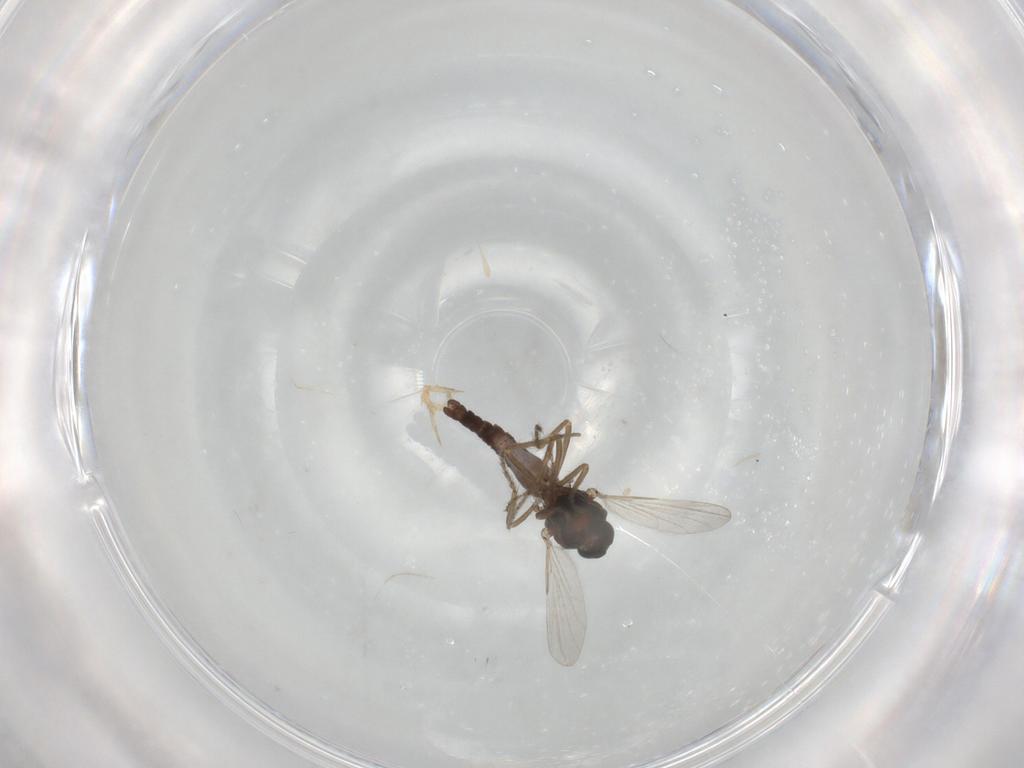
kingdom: Animalia
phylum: Arthropoda
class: Insecta
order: Diptera
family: Ceratopogonidae
